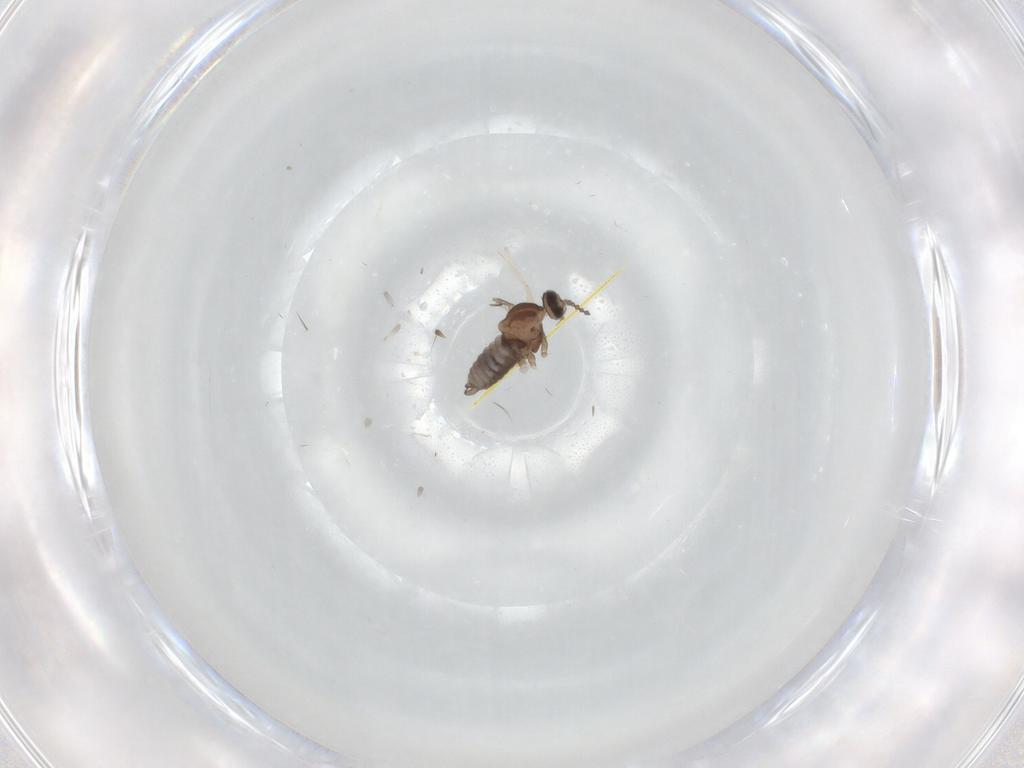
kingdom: Animalia
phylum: Arthropoda
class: Insecta
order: Diptera
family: Cecidomyiidae
